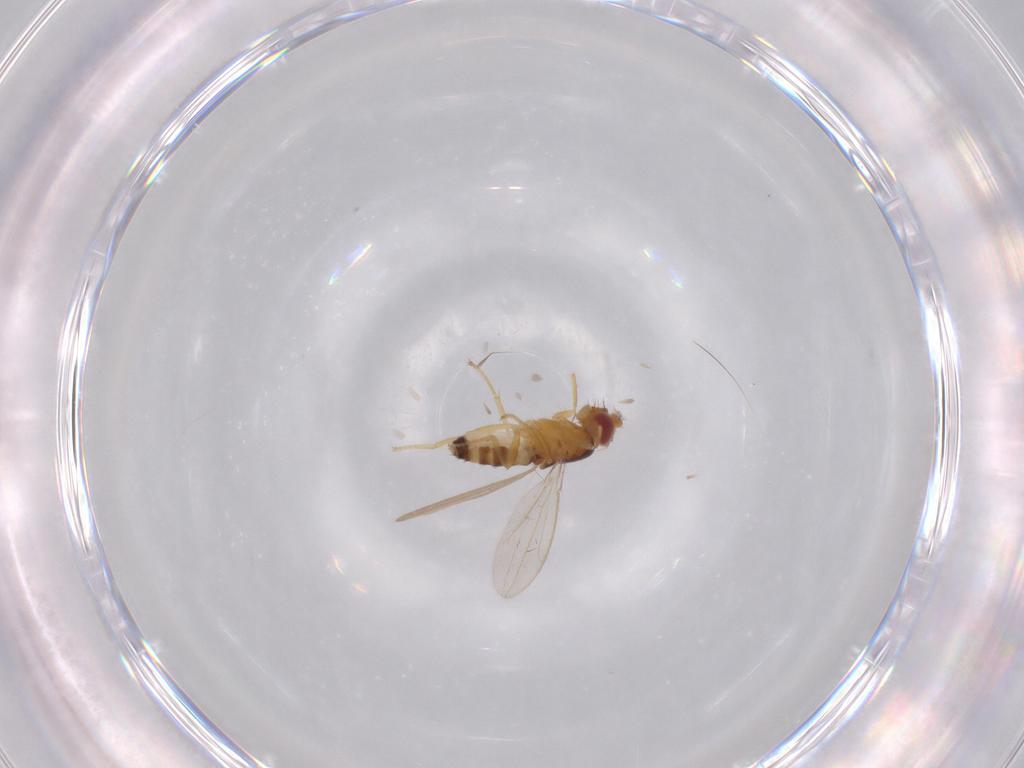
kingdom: Animalia
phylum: Arthropoda
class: Insecta
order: Diptera
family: Periscelididae
